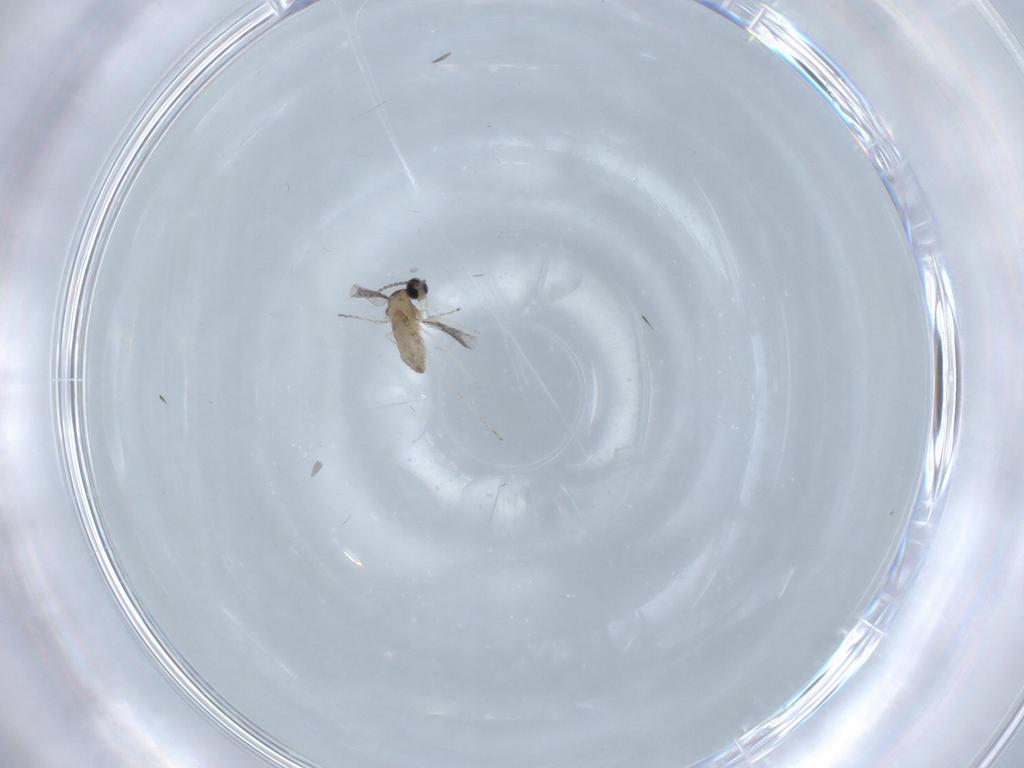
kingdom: Animalia
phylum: Arthropoda
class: Insecta
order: Diptera
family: Cecidomyiidae
